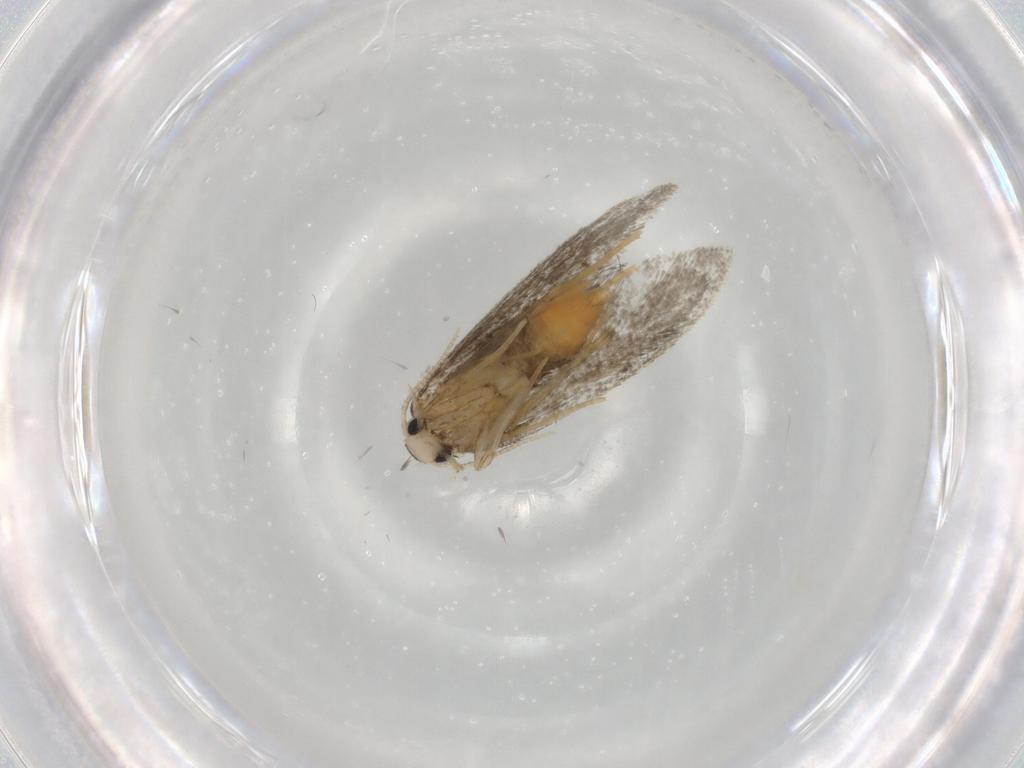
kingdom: Animalia
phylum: Arthropoda
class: Insecta
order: Lepidoptera
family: Psychidae
